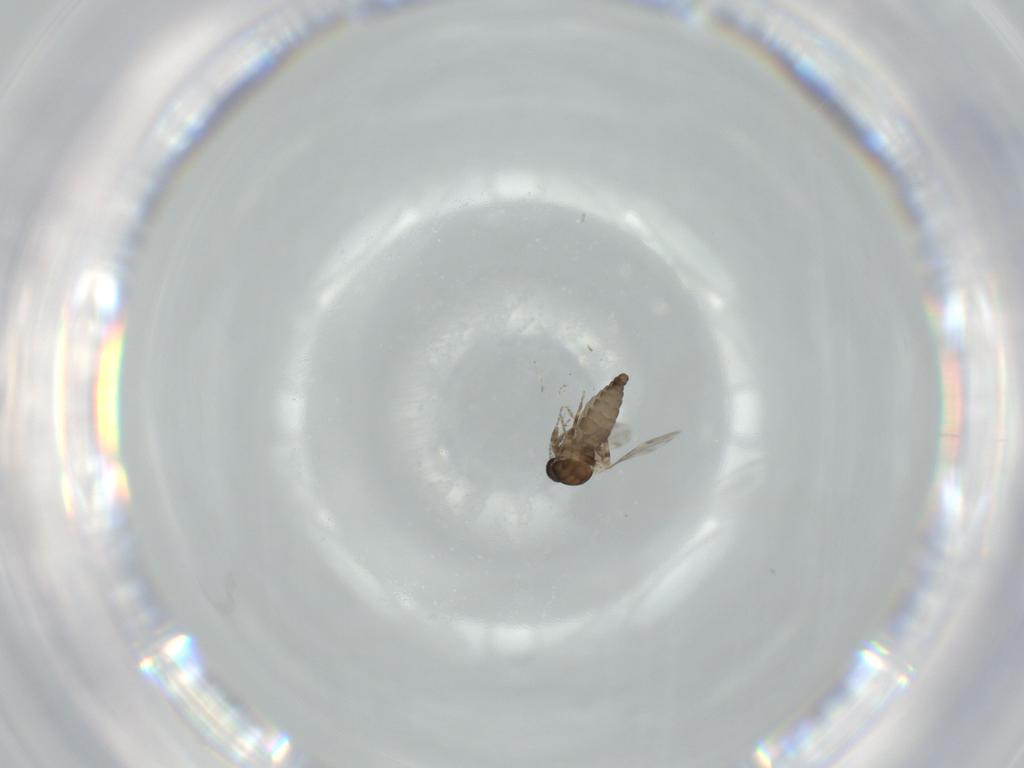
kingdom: Animalia
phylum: Arthropoda
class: Insecta
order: Diptera
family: Ceratopogonidae
